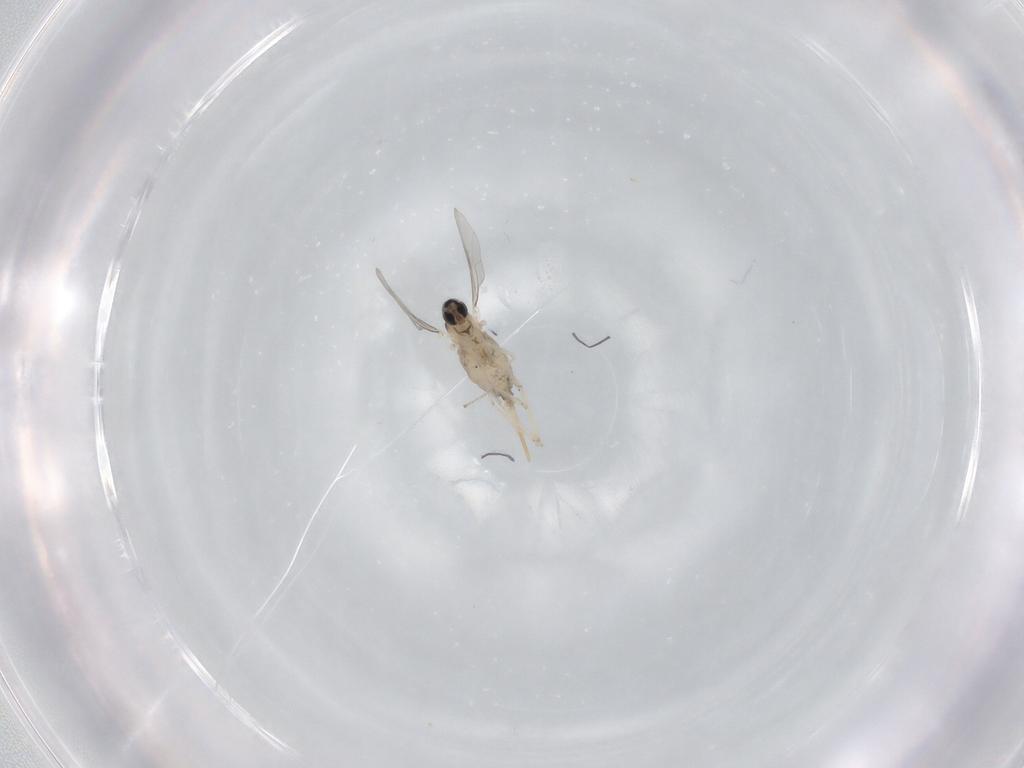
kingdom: Animalia
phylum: Arthropoda
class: Insecta
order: Diptera
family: Cecidomyiidae
